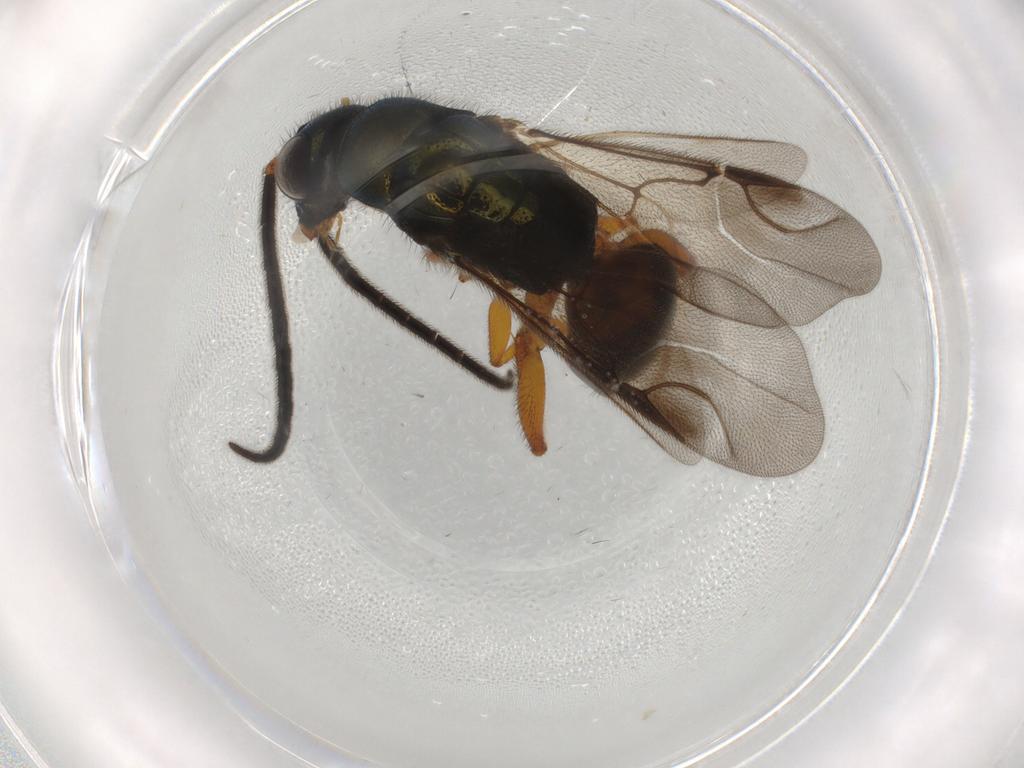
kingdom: Animalia
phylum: Arthropoda
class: Insecta
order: Hymenoptera
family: Chrysididae
